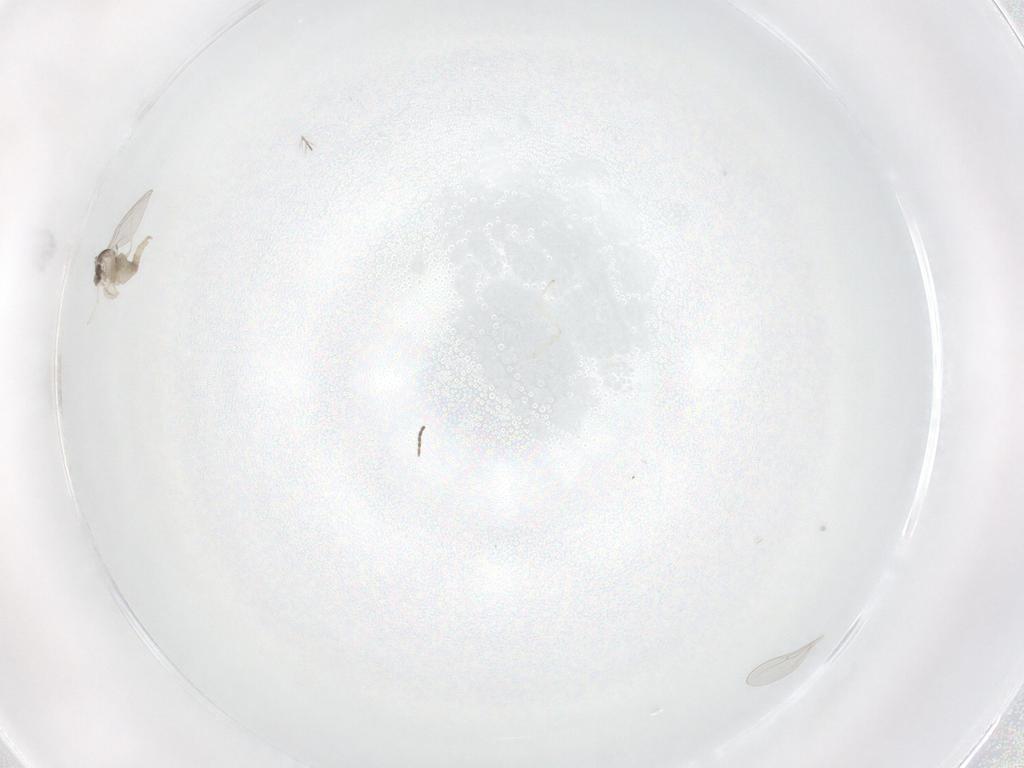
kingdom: Animalia
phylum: Arthropoda
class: Insecta
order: Diptera
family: Cecidomyiidae
